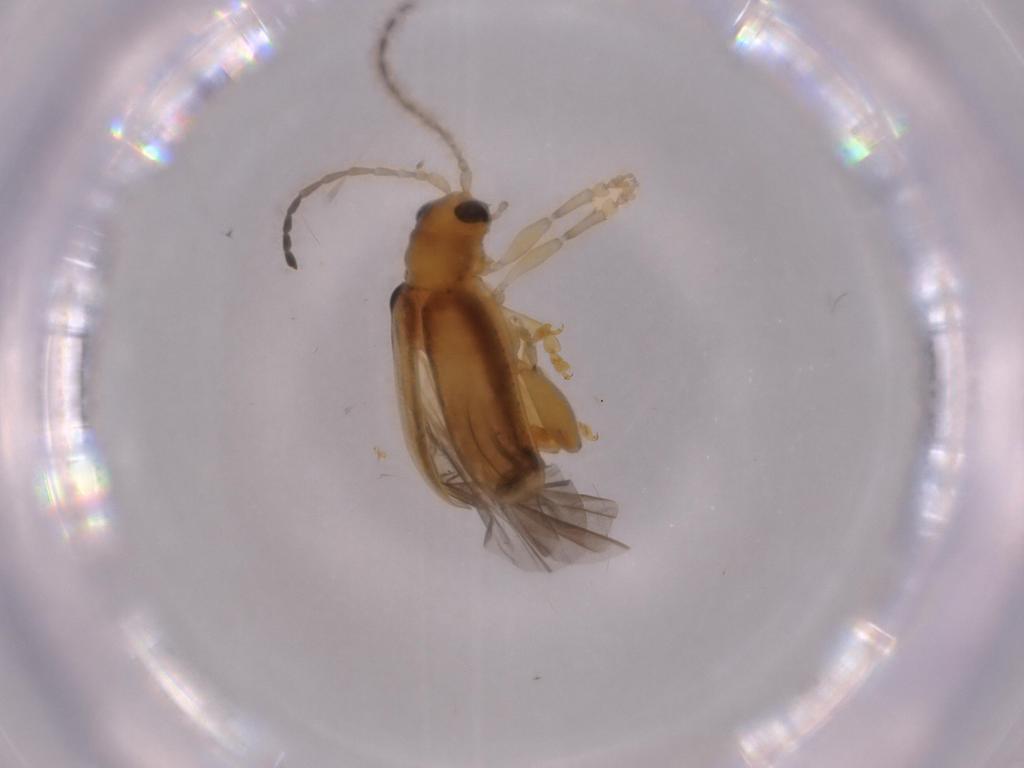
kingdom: Animalia
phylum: Arthropoda
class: Insecta
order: Coleoptera
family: Chrysomelidae
